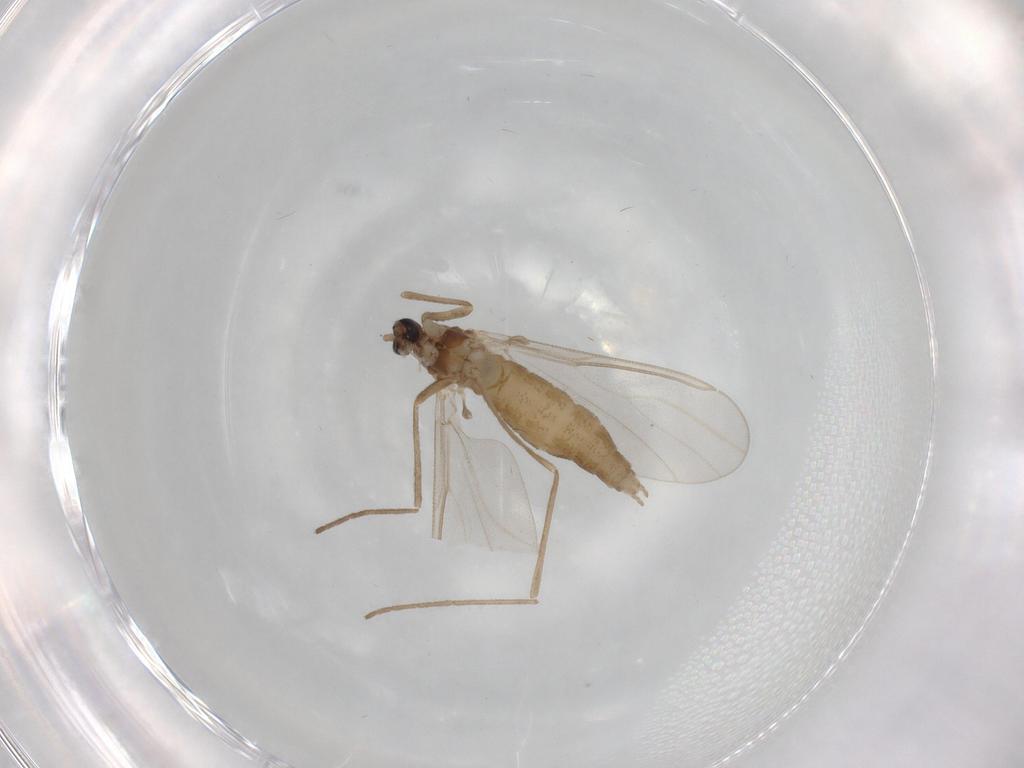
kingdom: Animalia
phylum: Arthropoda
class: Insecta
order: Diptera
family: Cecidomyiidae
